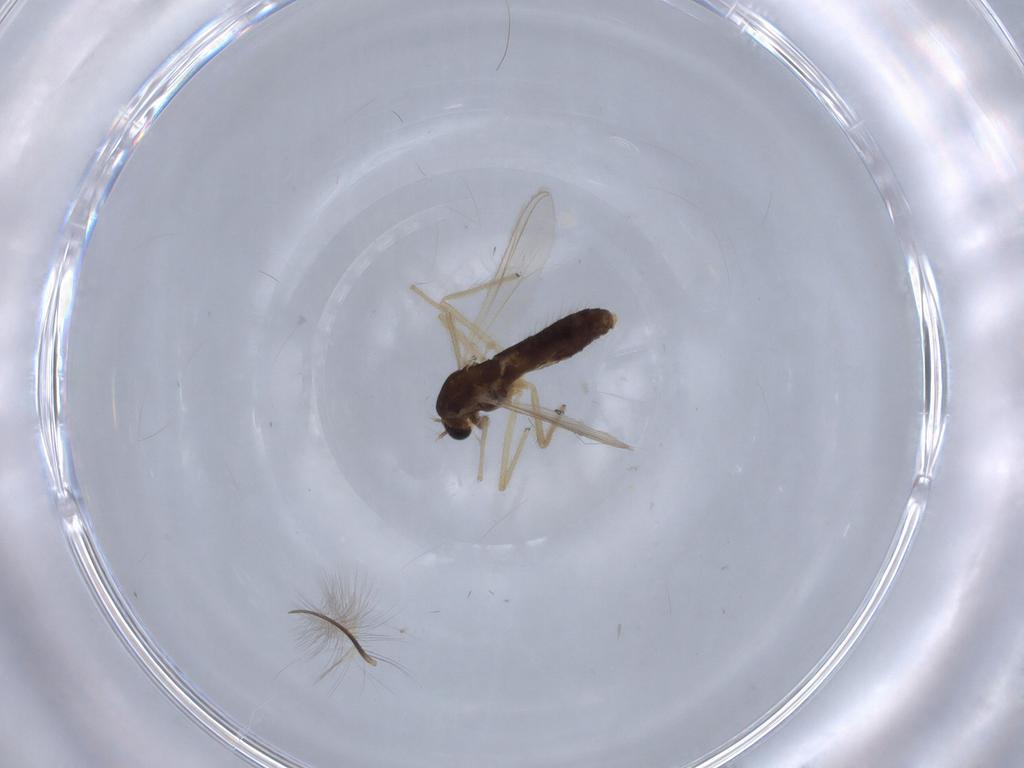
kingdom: Animalia
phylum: Arthropoda
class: Insecta
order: Diptera
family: Chironomidae
